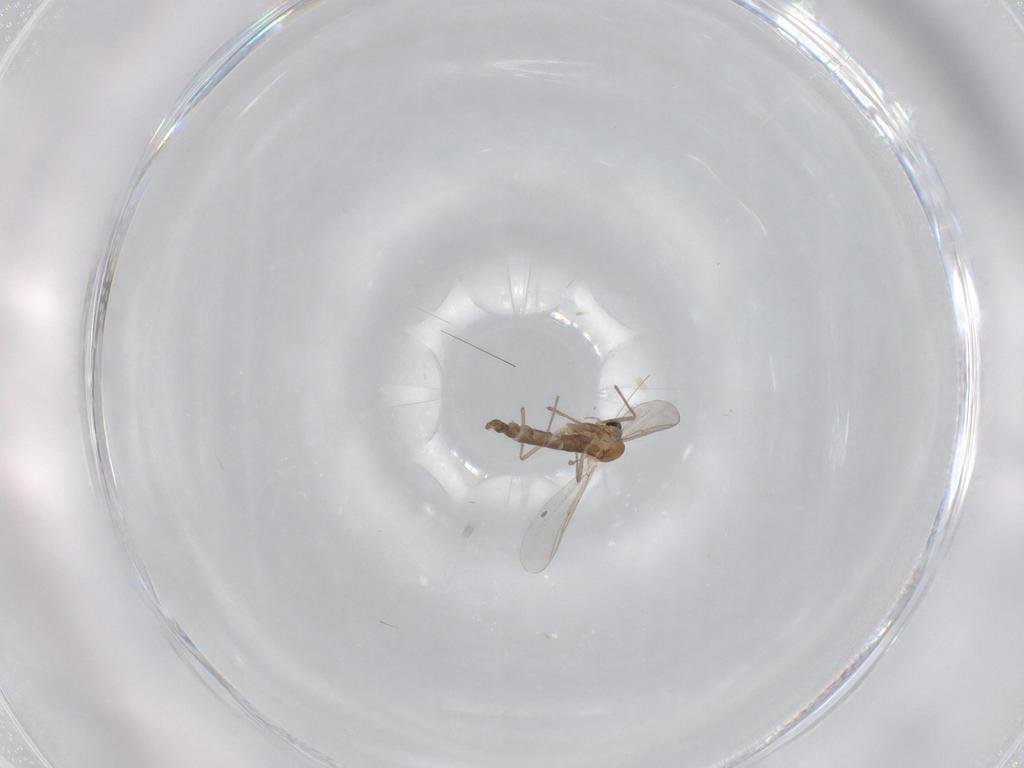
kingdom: Animalia
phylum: Arthropoda
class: Insecta
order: Diptera
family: Chironomidae
